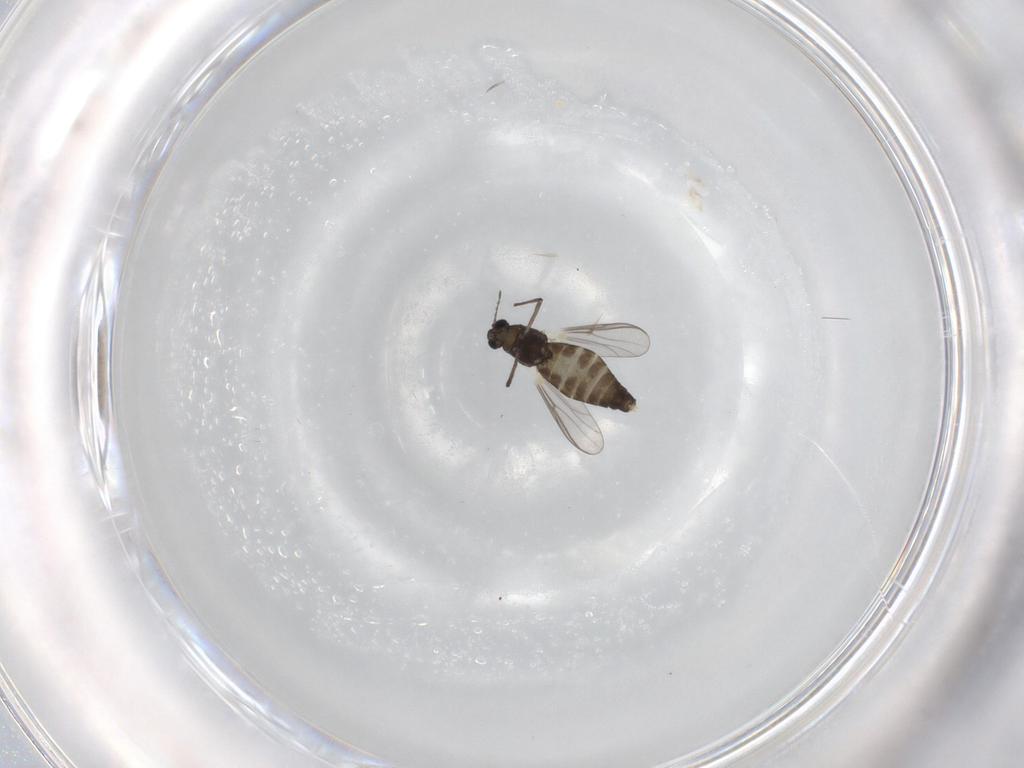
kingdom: Animalia
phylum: Arthropoda
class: Insecta
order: Diptera
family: Chironomidae
